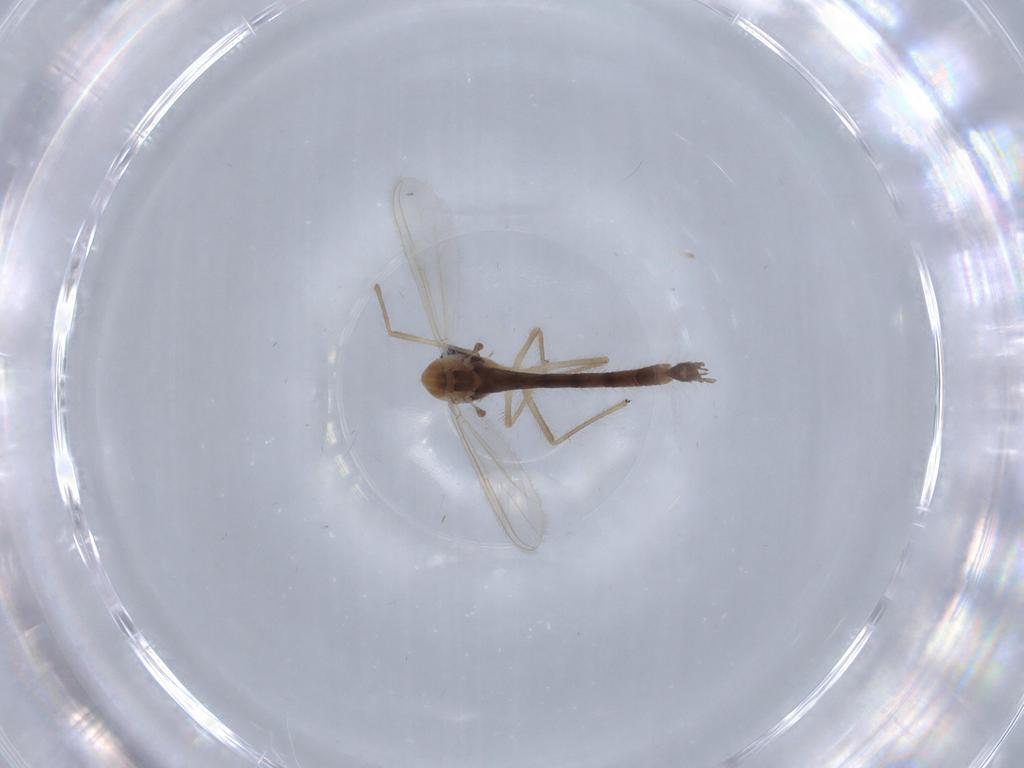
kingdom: Animalia
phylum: Arthropoda
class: Insecta
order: Diptera
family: Chironomidae
